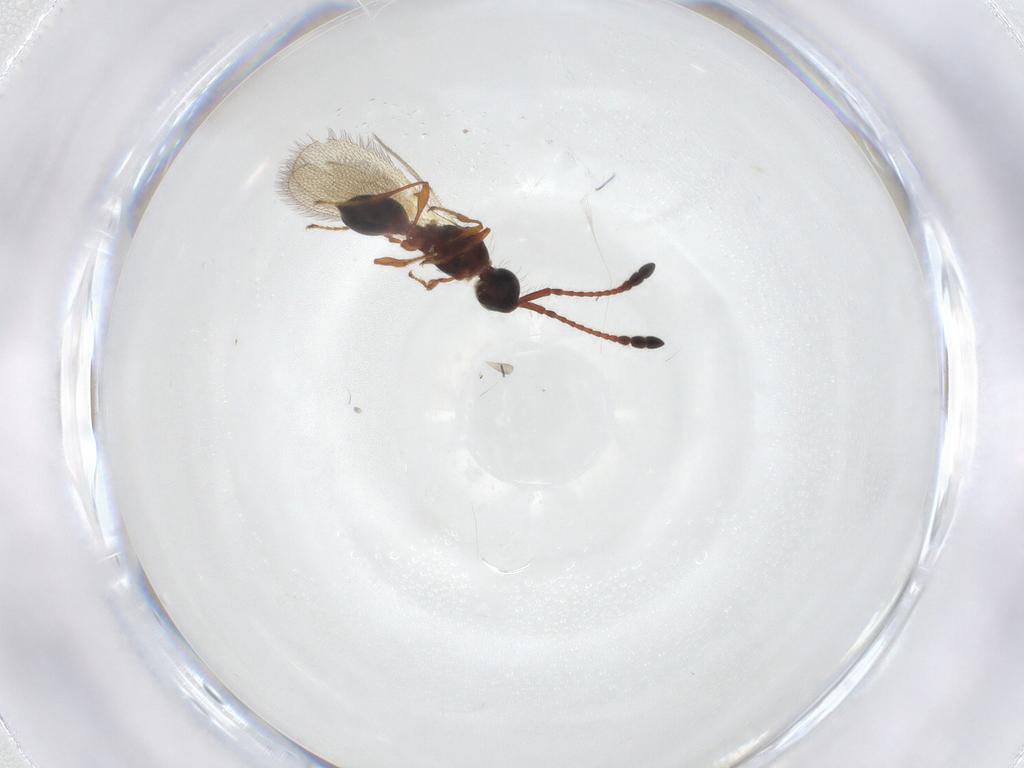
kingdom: Animalia
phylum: Arthropoda
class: Insecta
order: Hymenoptera
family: Diapriidae
